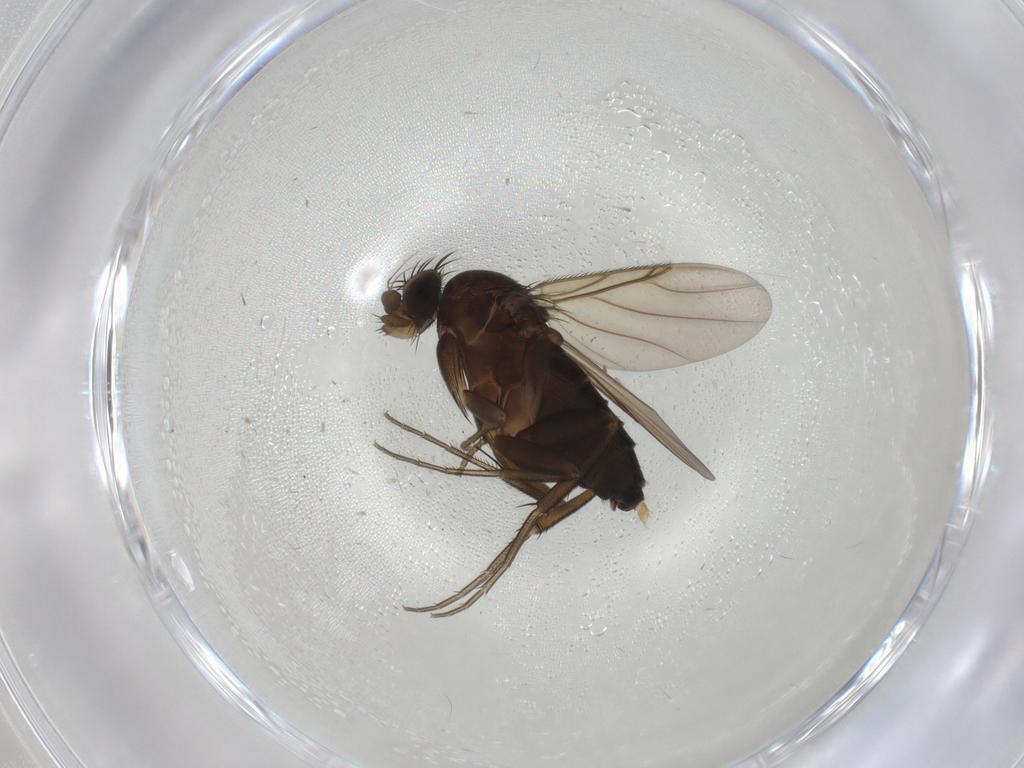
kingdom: Animalia
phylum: Arthropoda
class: Insecta
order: Diptera
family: Phoridae
